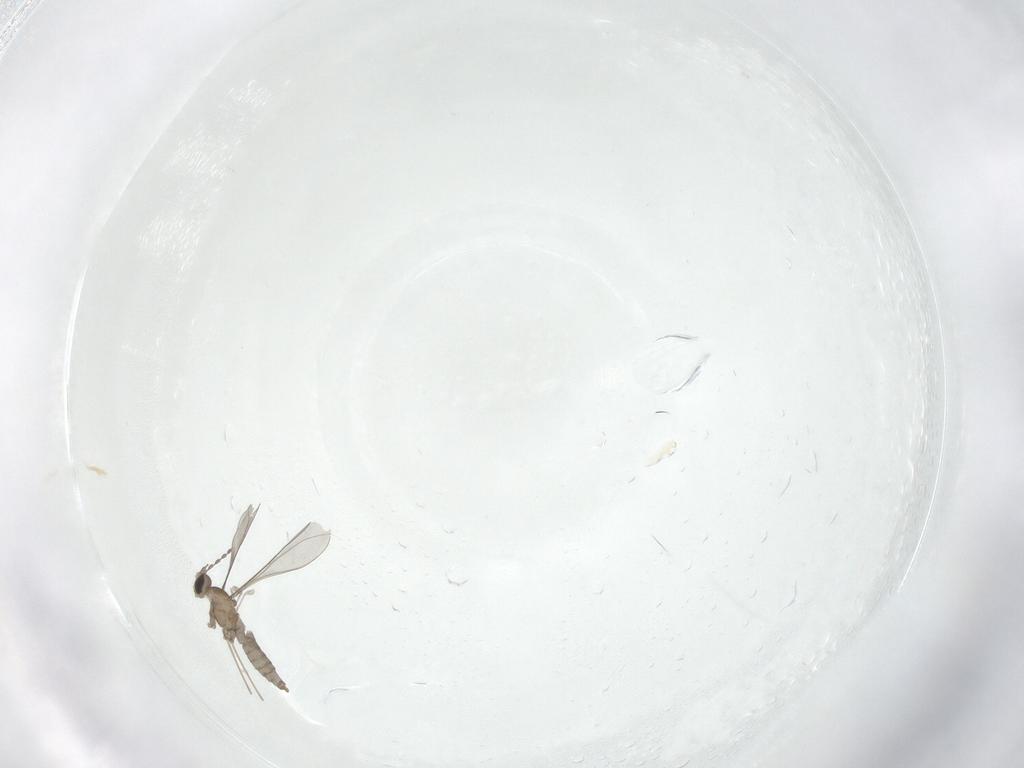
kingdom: Animalia
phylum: Arthropoda
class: Insecta
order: Diptera
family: Cecidomyiidae
